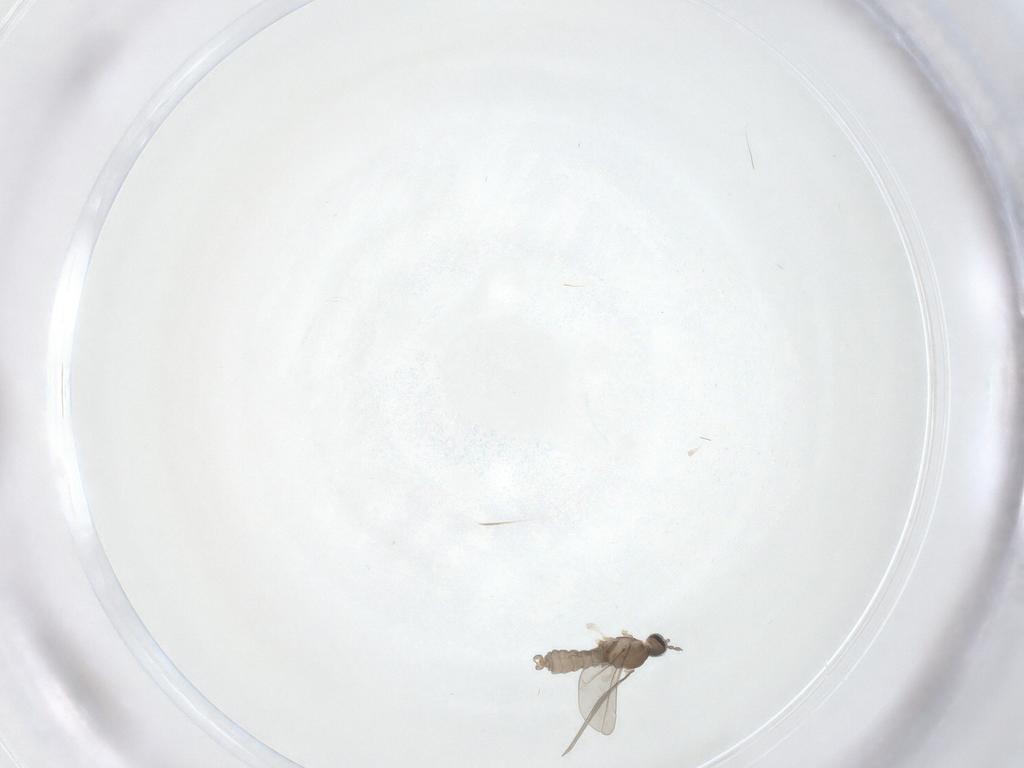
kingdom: Animalia
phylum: Arthropoda
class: Insecta
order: Diptera
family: Cecidomyiidae
